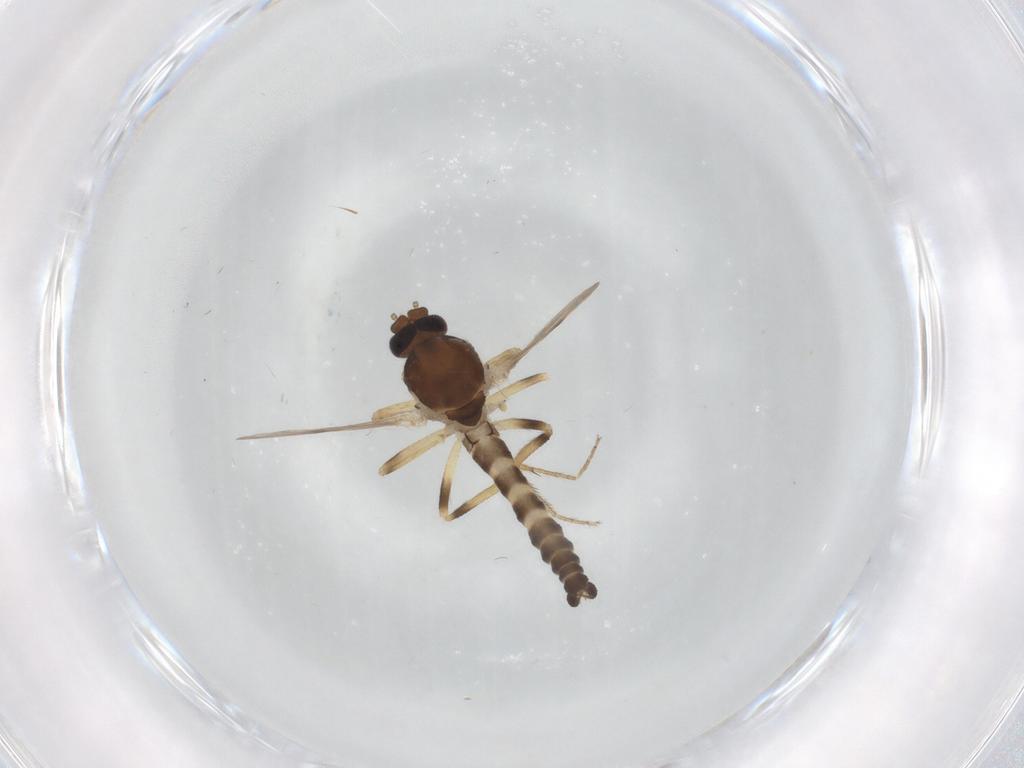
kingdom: Animalia
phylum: Arthropoda
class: Insecta
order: Diptera
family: Ceratopogonidae
